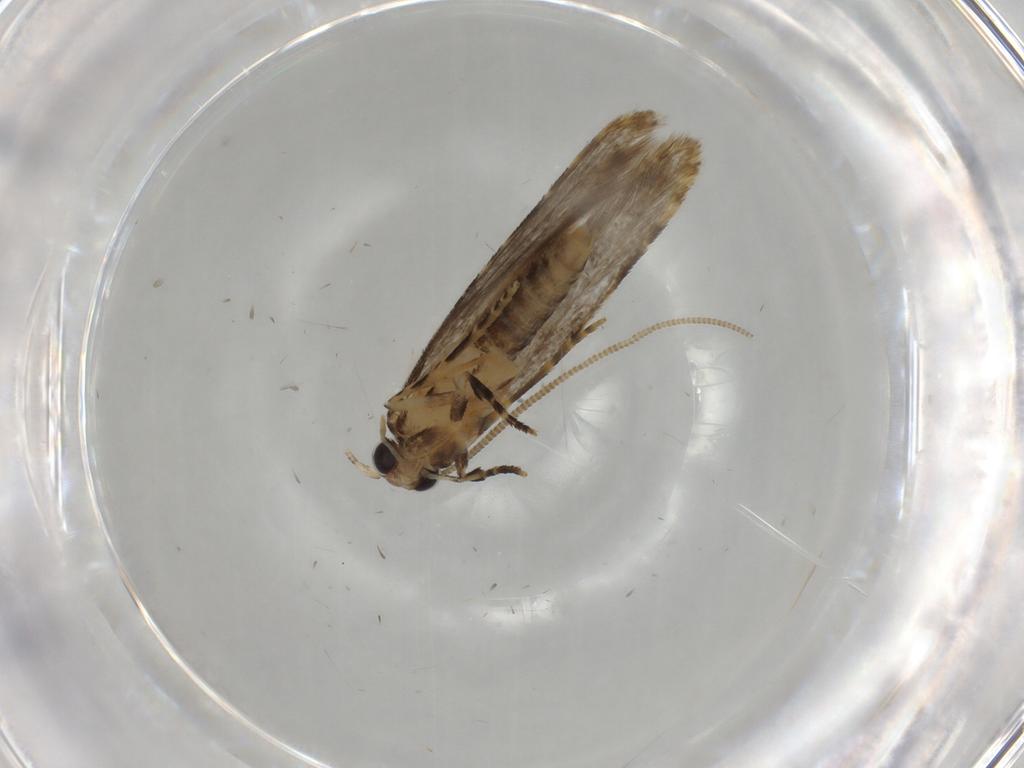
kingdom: Animalia
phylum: Arthropoda
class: Insecta
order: Lepidoptera
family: Tineidae
